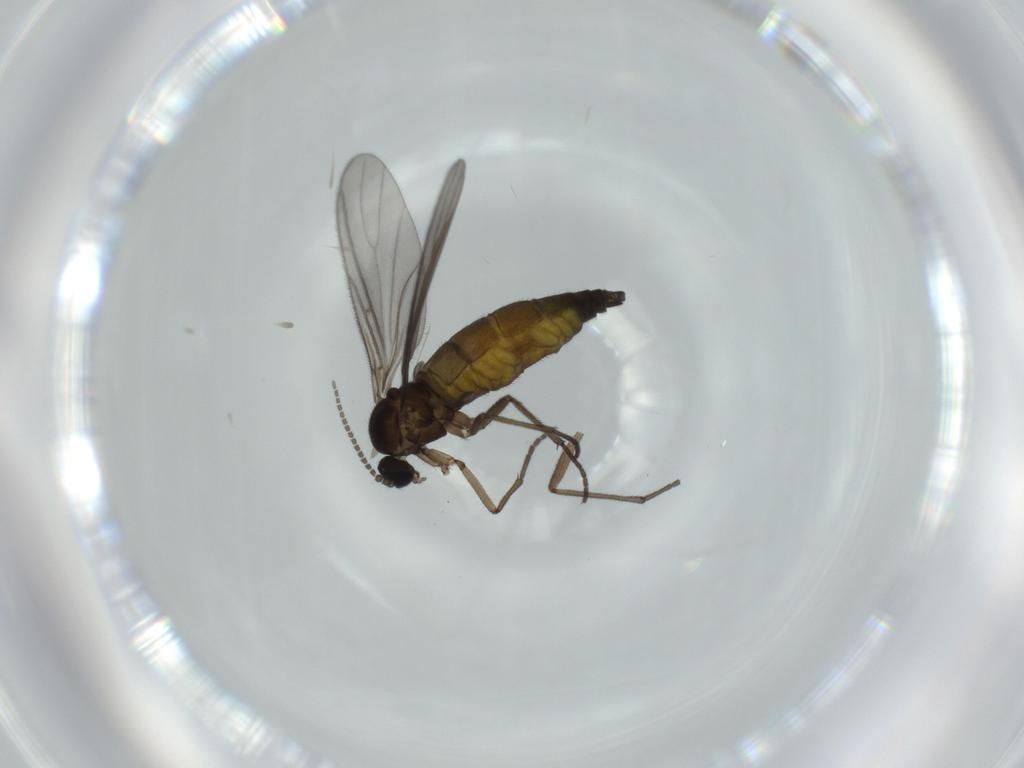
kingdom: Animalia
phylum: Arthropoda
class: Insecta
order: Diptera
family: Sciaridae
